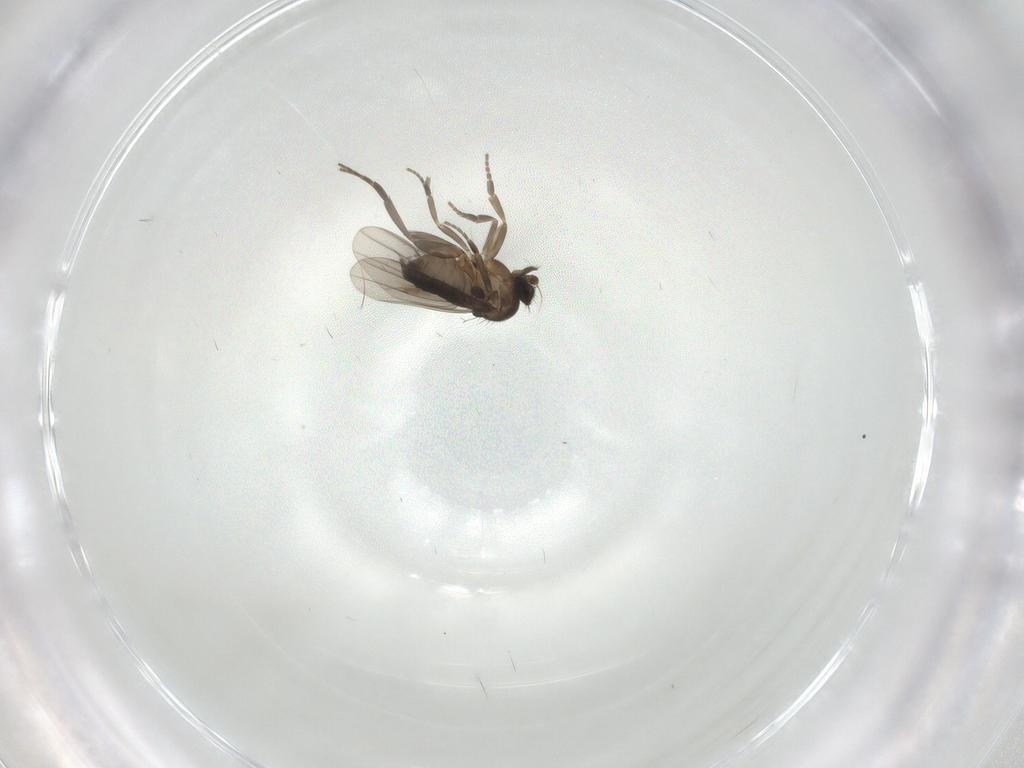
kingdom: Animalia
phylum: Arthropoda
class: Insecta
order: Diptera
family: Phoridae
